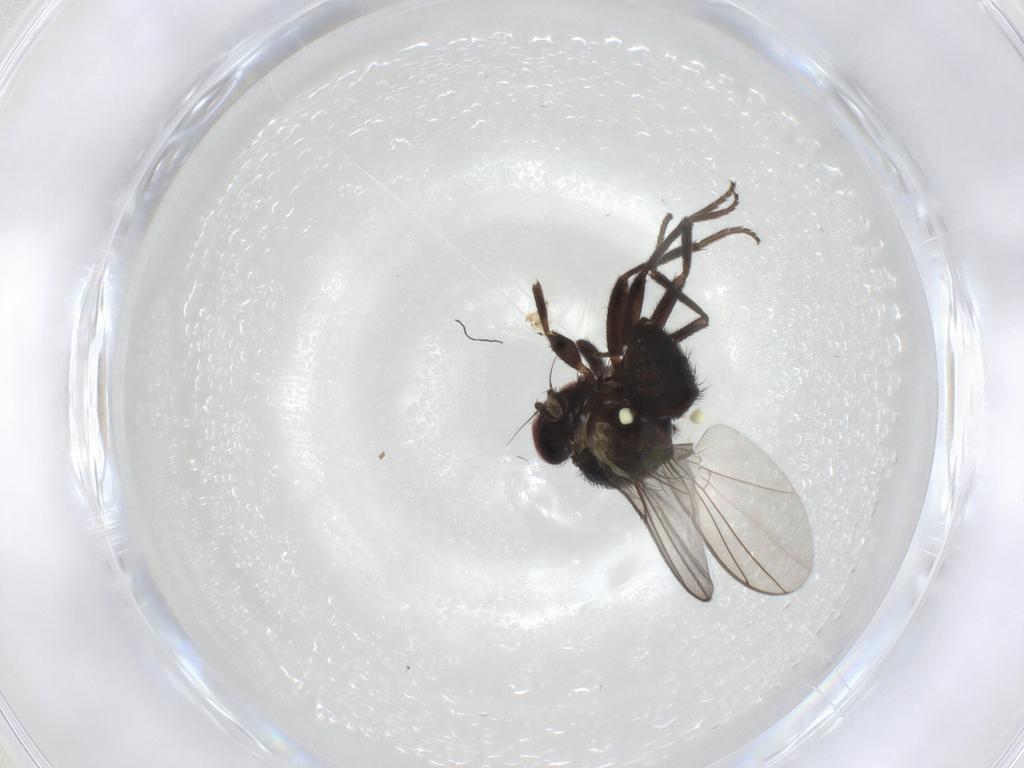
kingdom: Animalia
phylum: Arthropoda
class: Insecta
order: Diptera
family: Agromyzidae
